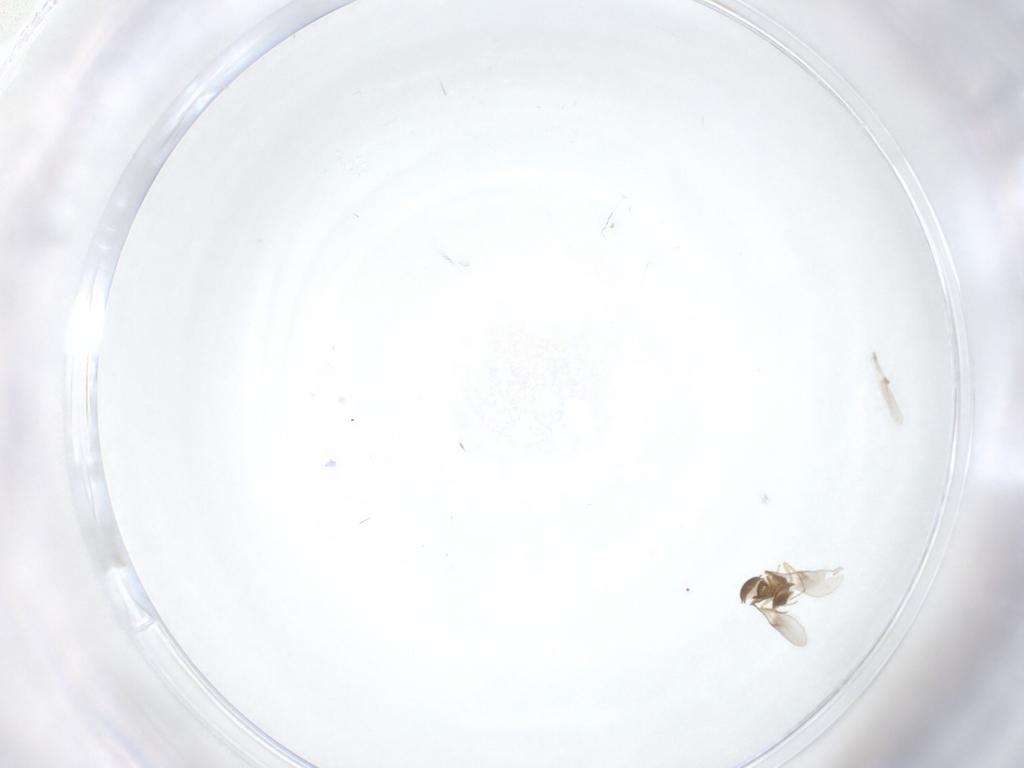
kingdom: Animalia
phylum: Arthropoda
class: Insecta
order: Hymenoptera
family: Scelionidae
